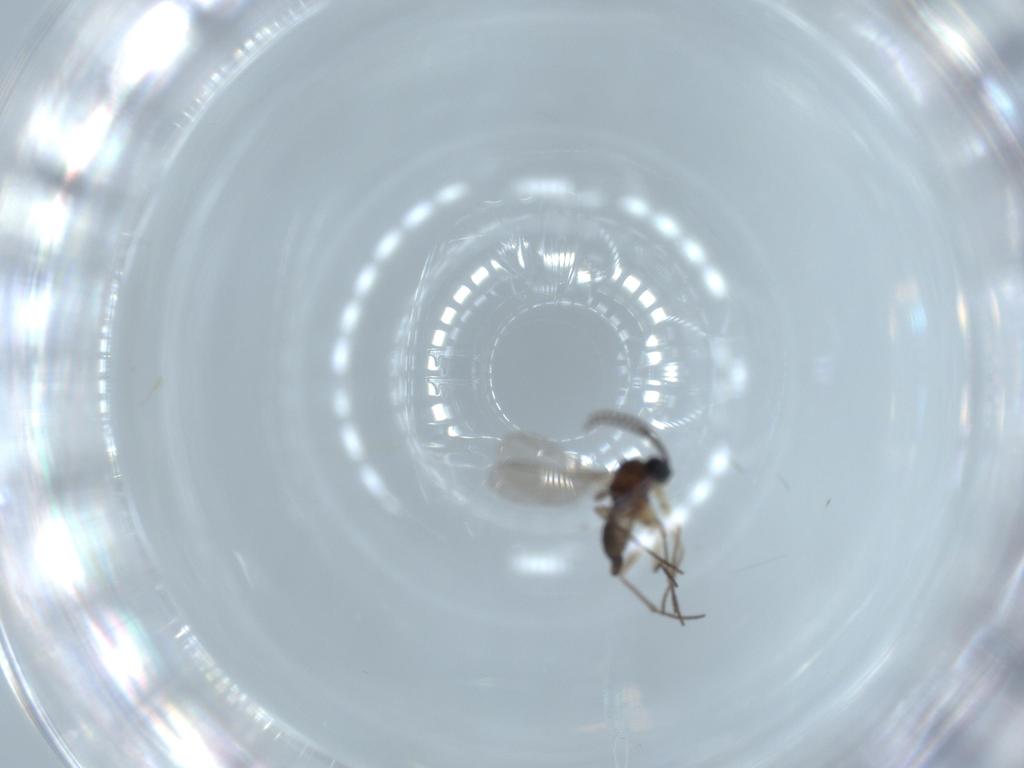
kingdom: Animalia
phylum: Arthropoda
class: Insecta
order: Diptera
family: Sciaridae
